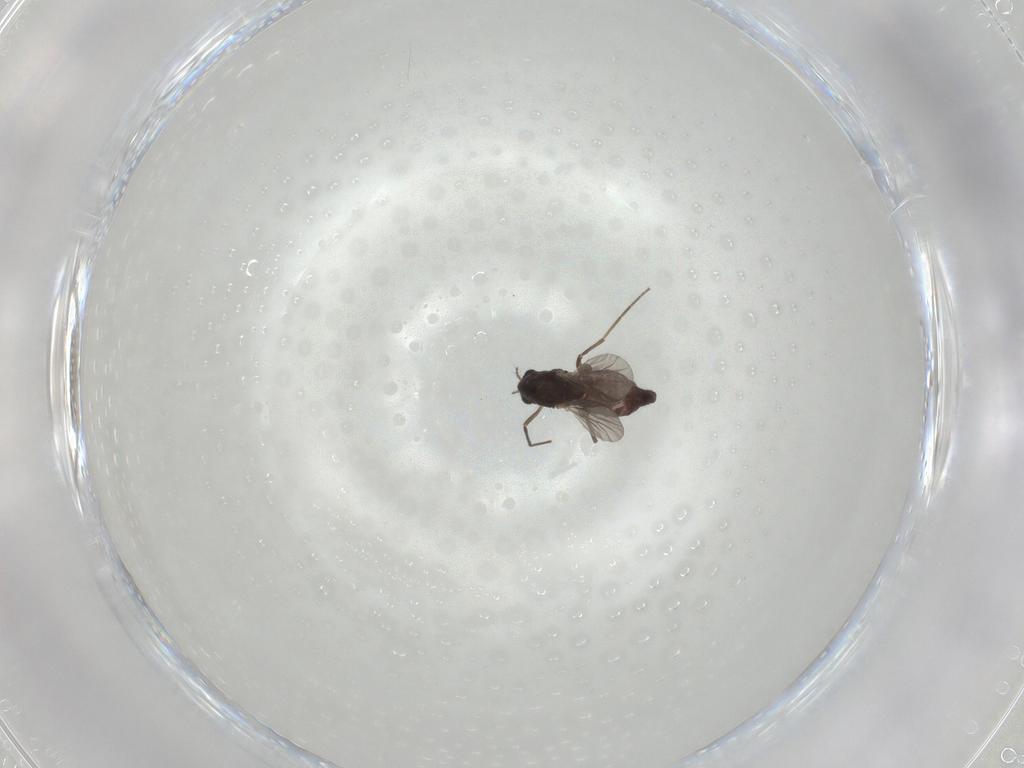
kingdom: Animalia
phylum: Arthropoda
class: Insecta
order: Diptera
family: Chironomidae
